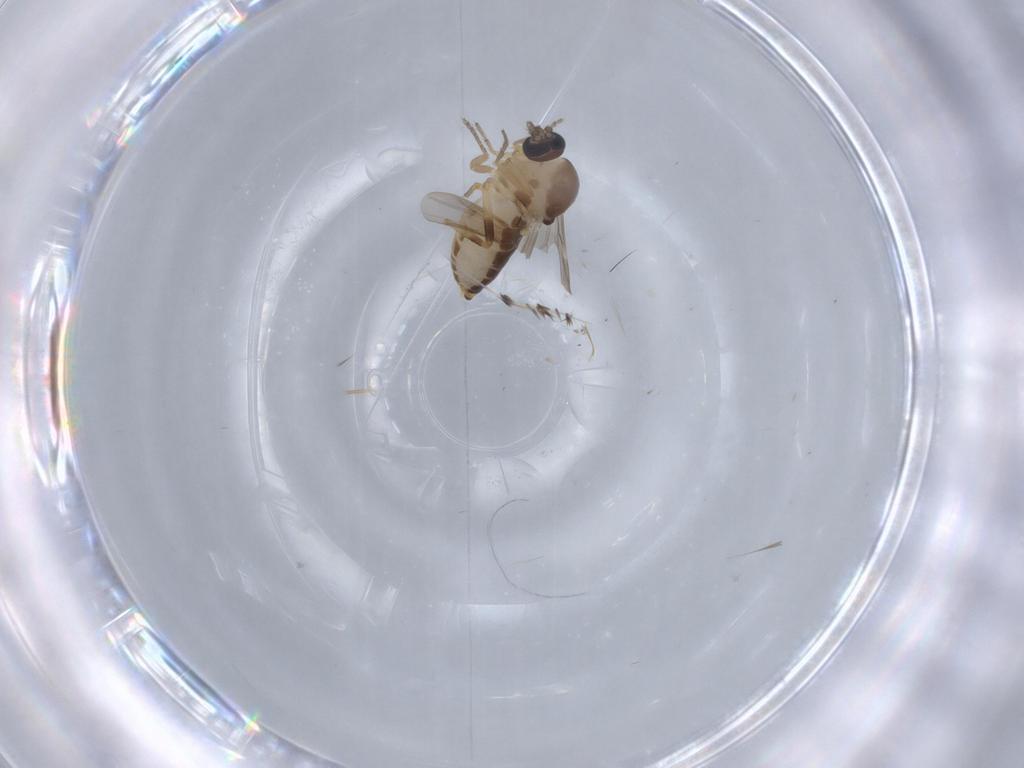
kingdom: Animalia
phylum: Arthropoda
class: Insecta
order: Diptera
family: Ceratopogonidae
